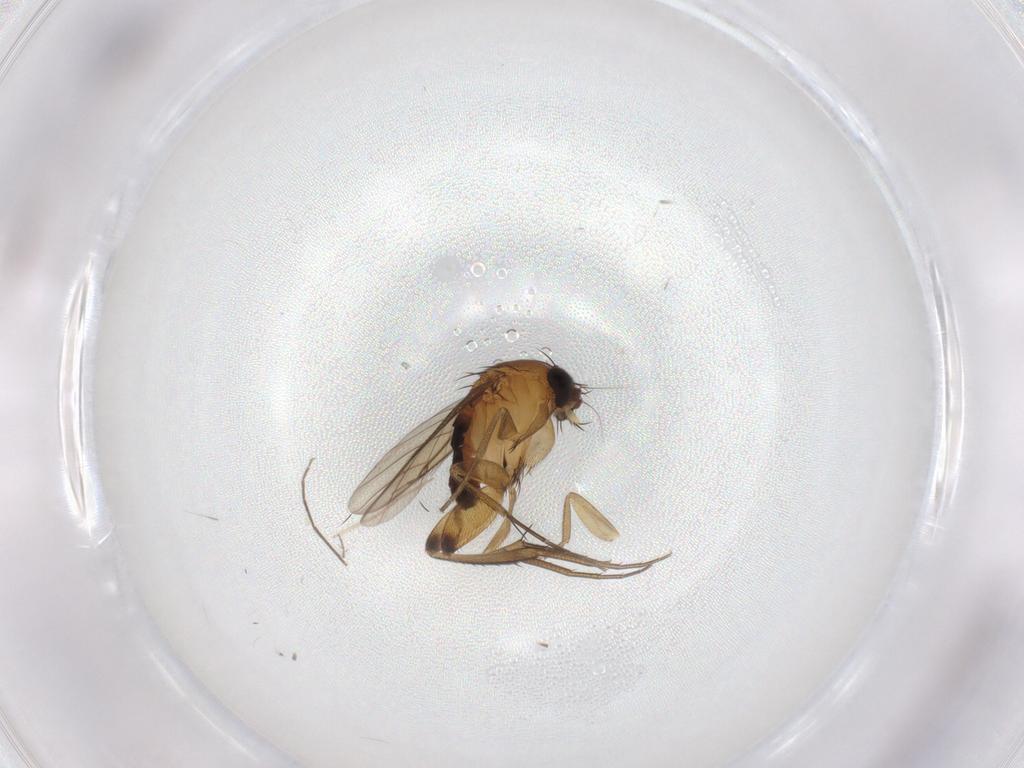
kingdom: Animalia
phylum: Arthropoda
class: Insecta
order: Diptera
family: Phoridae
